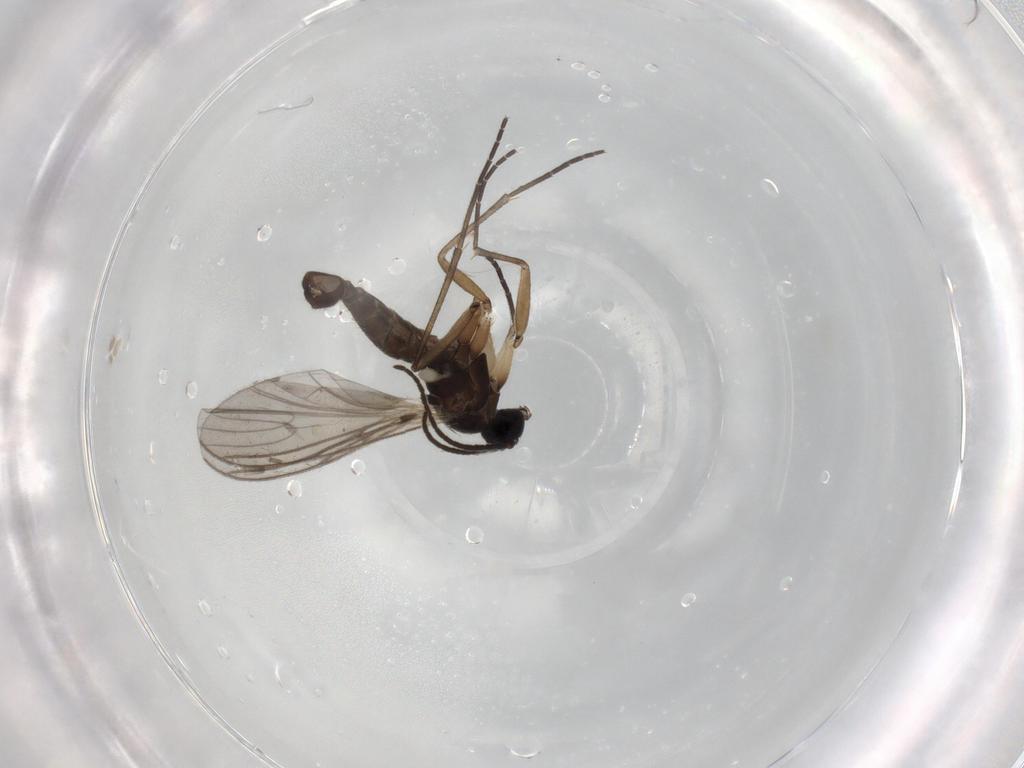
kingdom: Animalia
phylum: Arthropoda
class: Insecta
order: Diptera
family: Sciaridae
